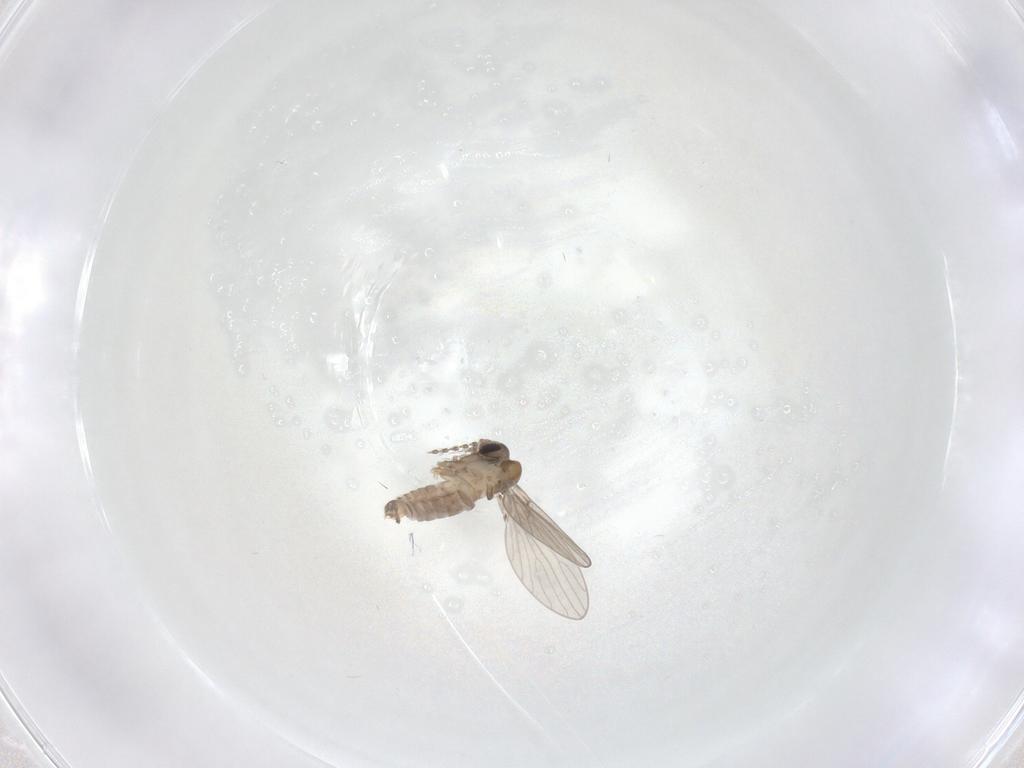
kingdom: Animalia
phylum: Arthropoda
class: Insecta
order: Diptera
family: Psychodidae
